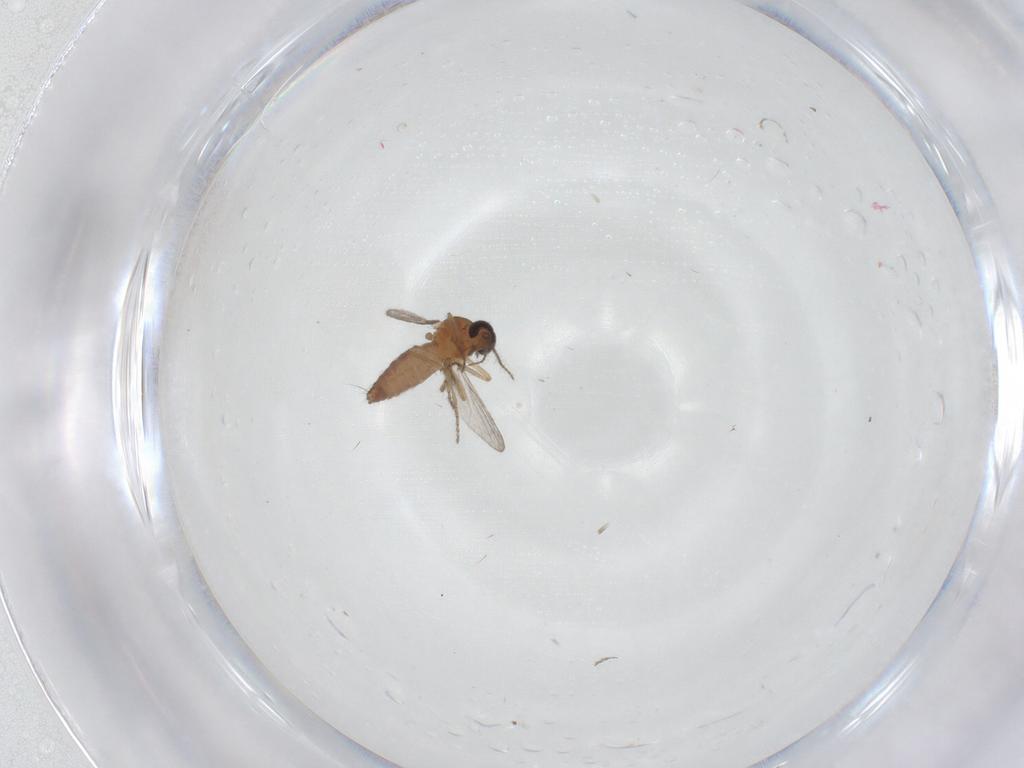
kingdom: Animalia
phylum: Arthropoda
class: Insecta
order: Diptera
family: Ceratopogonidae
